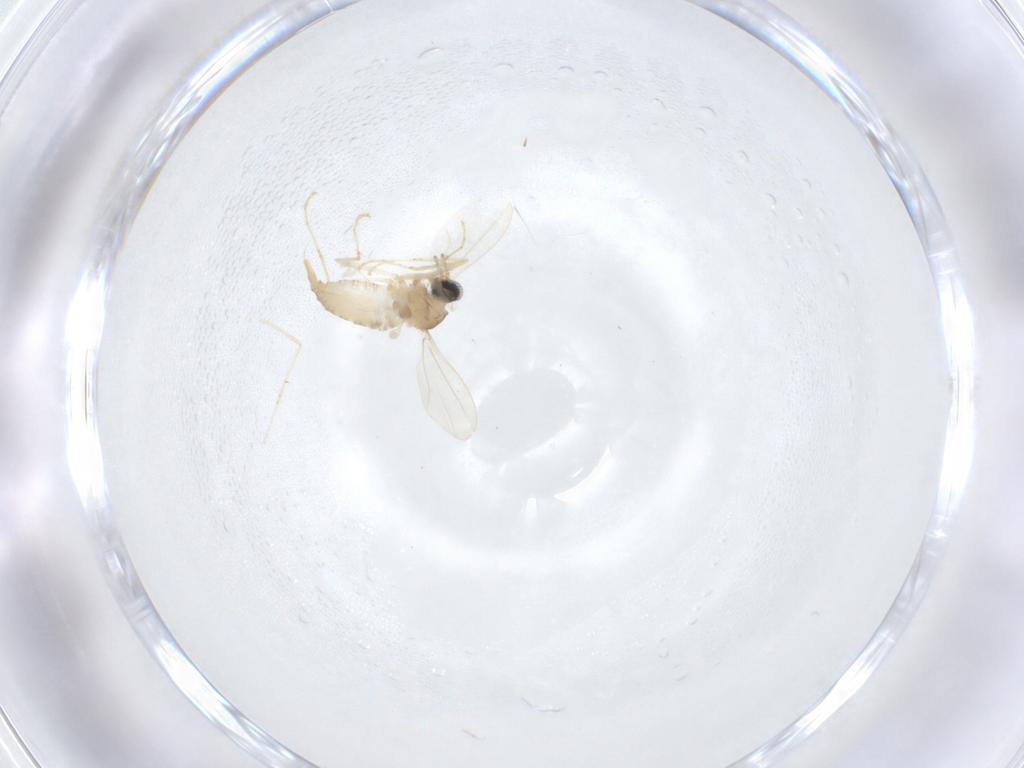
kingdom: Animalia
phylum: Arthropoda
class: Insecta
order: Diptera
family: Cecidomyiidae
